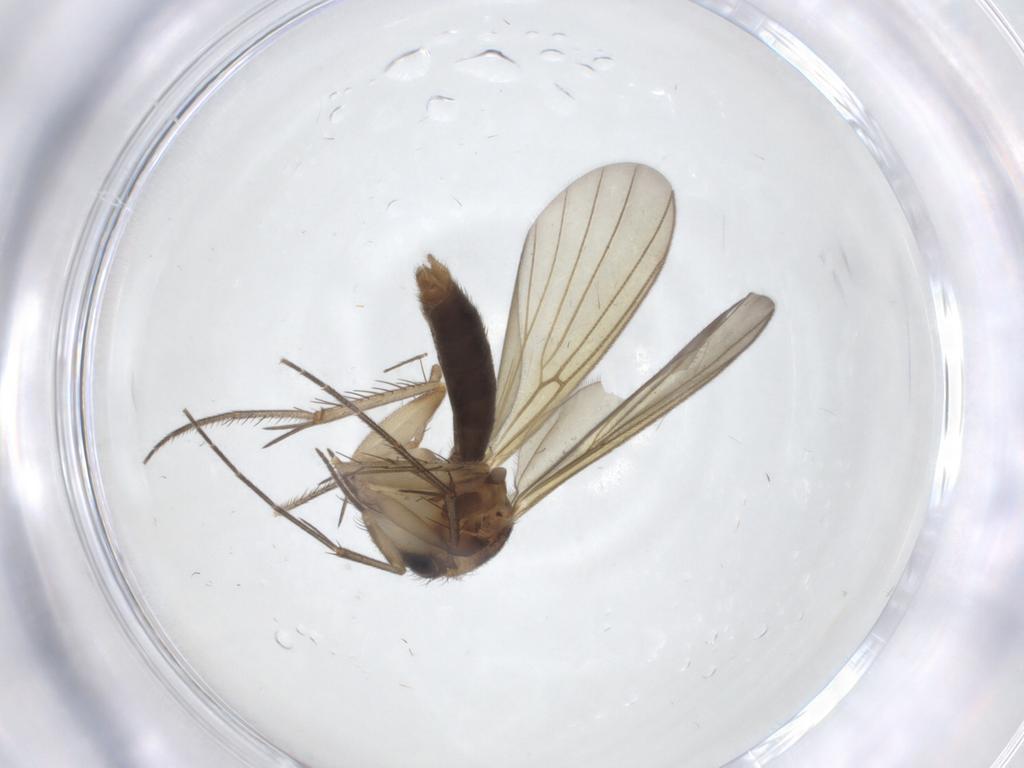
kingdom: Animalia
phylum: Arthropoda
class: Insecta
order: Diptera
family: Mycetophilidae
